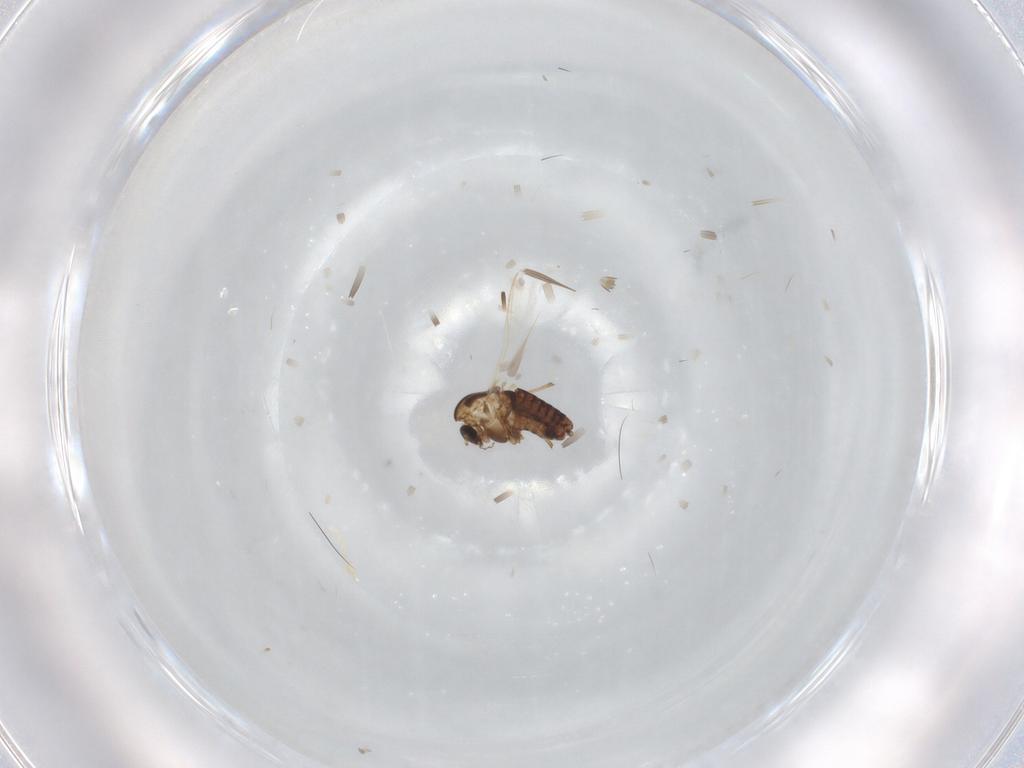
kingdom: Animalia
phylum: Arthropoda
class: Insecta
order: Diptera
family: Chironomidae
